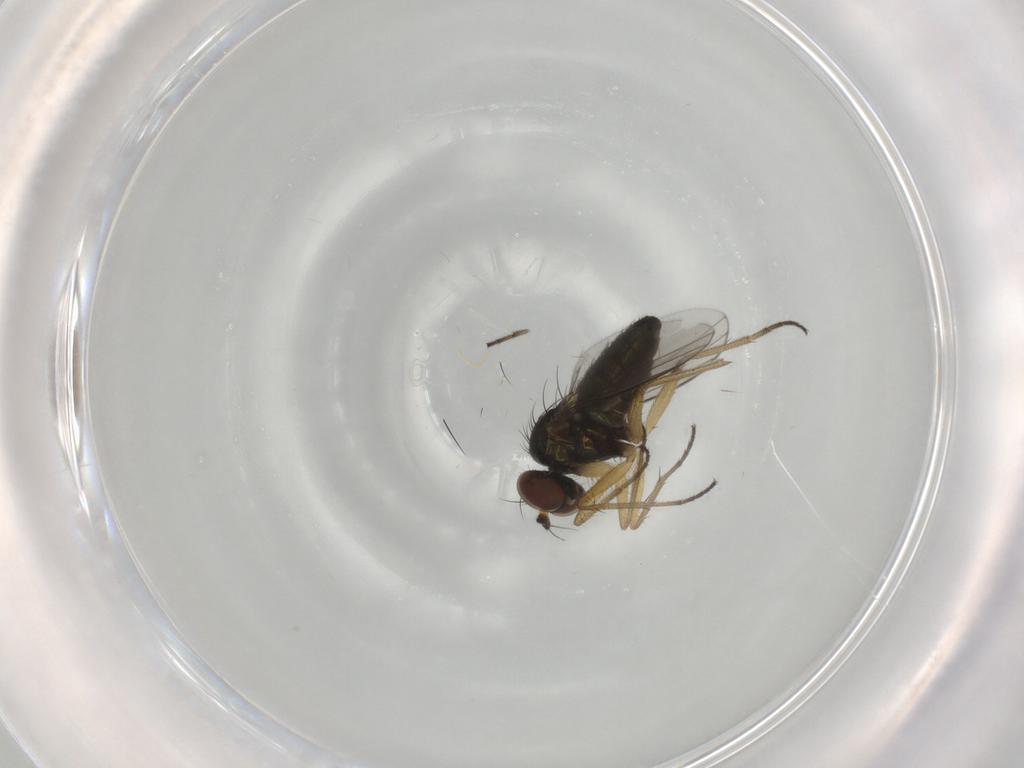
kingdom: Animalia
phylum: Arthropoda
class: Insecta
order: Diptera
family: Dolichopodidae
